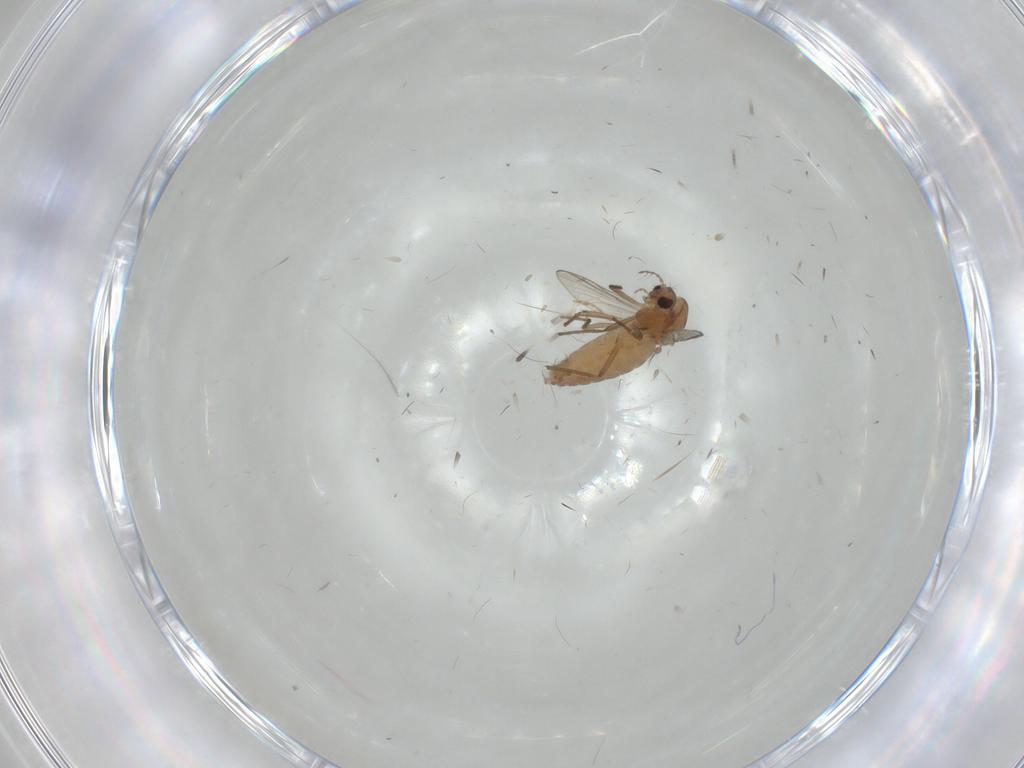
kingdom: Animalia
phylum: Arthropoda
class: Insecta
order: Diptera
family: Chironomidae
